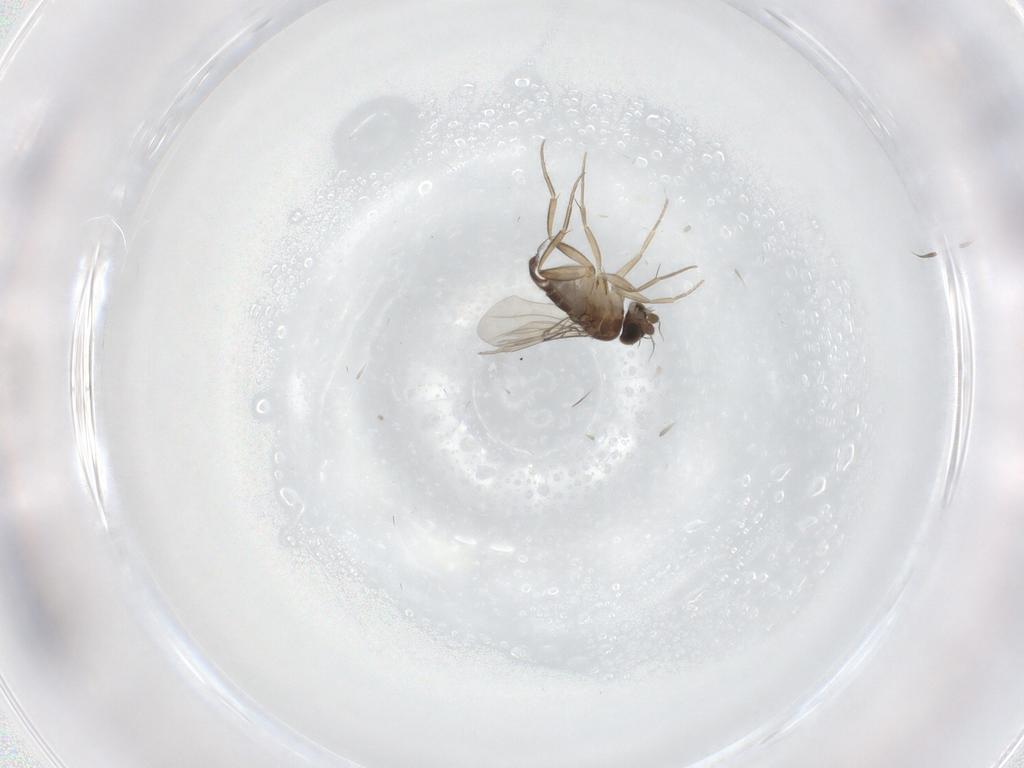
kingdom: Animalia
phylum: Arthropoda
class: Insecta
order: Diptera
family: Phoridae
